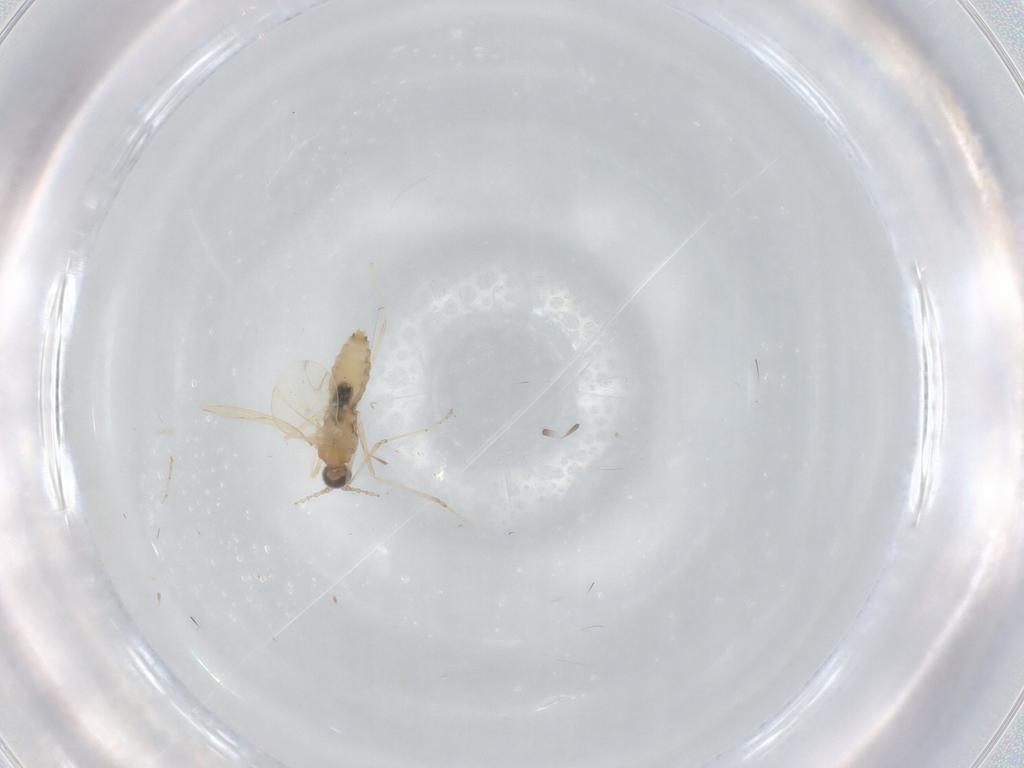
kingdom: Animalia
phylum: Arthropoda
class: Insecta
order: Diptera
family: Cecidomyiidae
